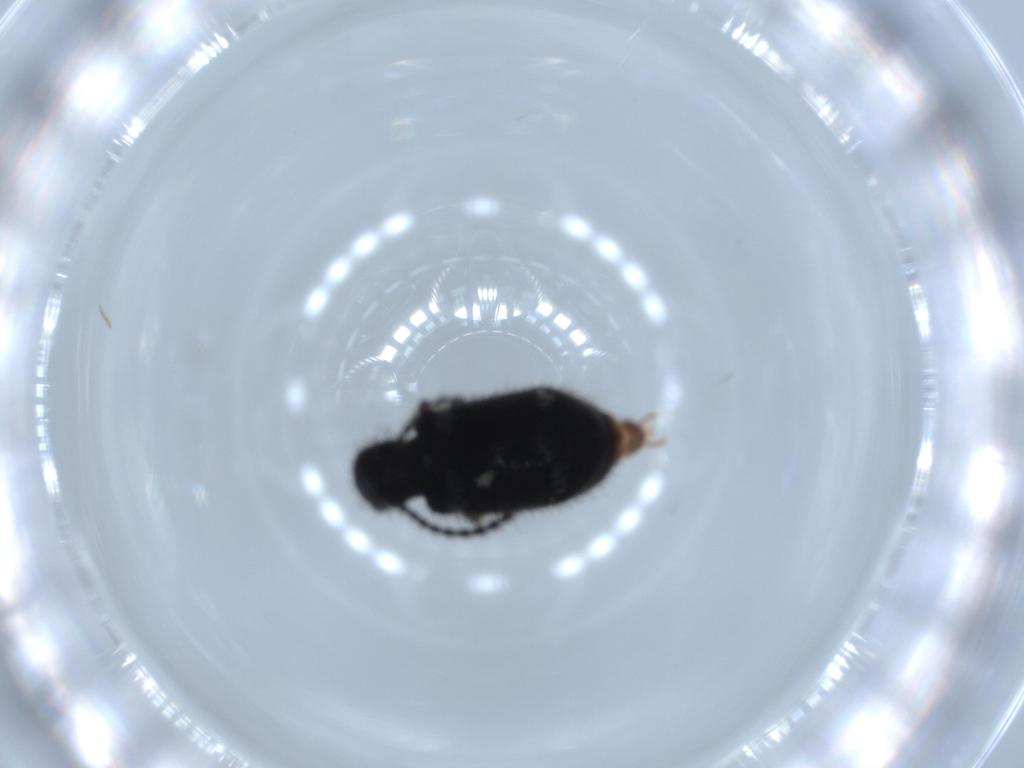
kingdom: Animalia
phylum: Arthropoda
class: Insecta
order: Coleoptera
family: Ptinidae
